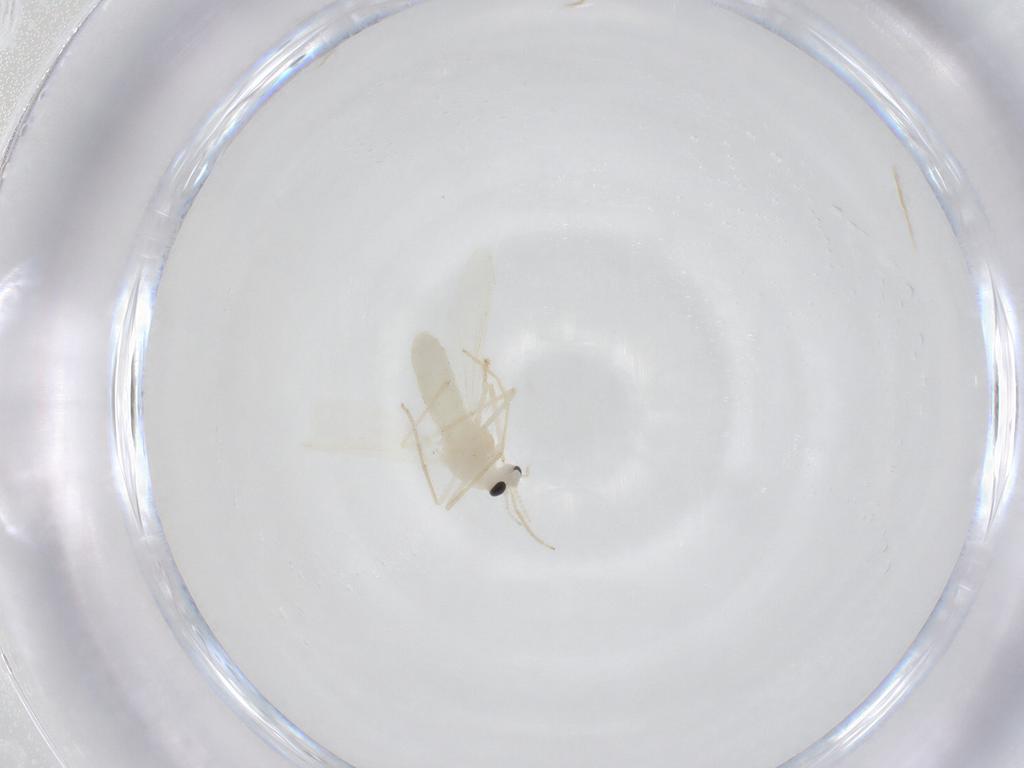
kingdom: Animalia
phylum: Arthropoda
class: Insecta
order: Diptera
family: Chironomidae
